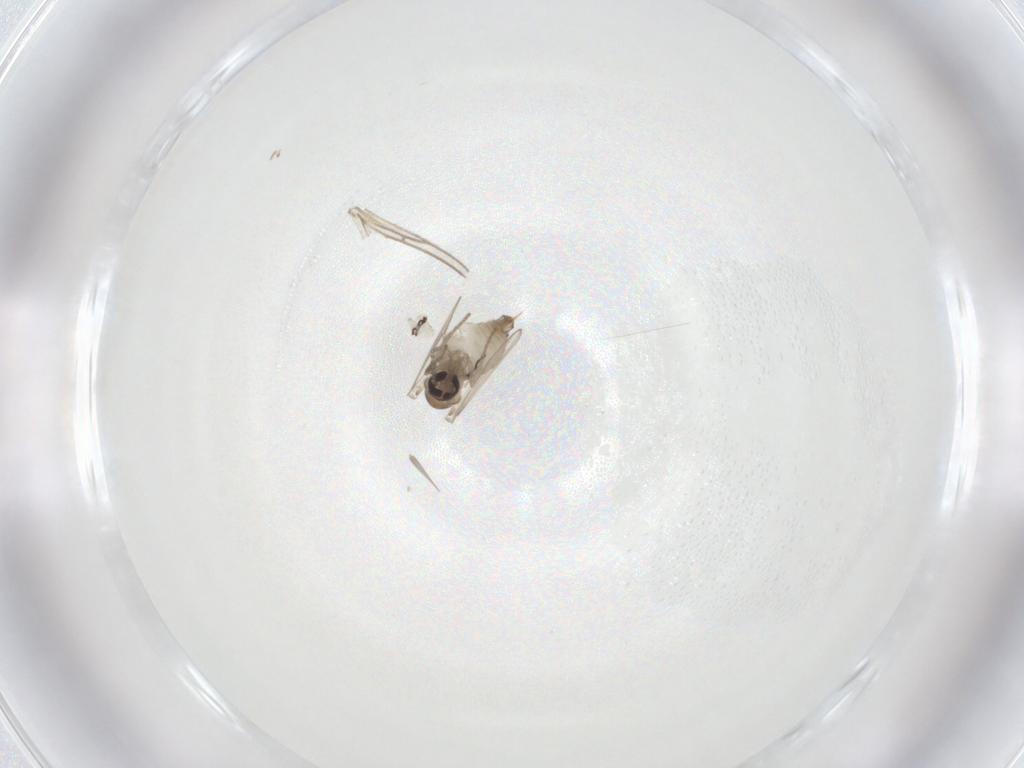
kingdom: Animalia
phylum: Arthropoda
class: Insecta
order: Diptera
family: Psychodidae
